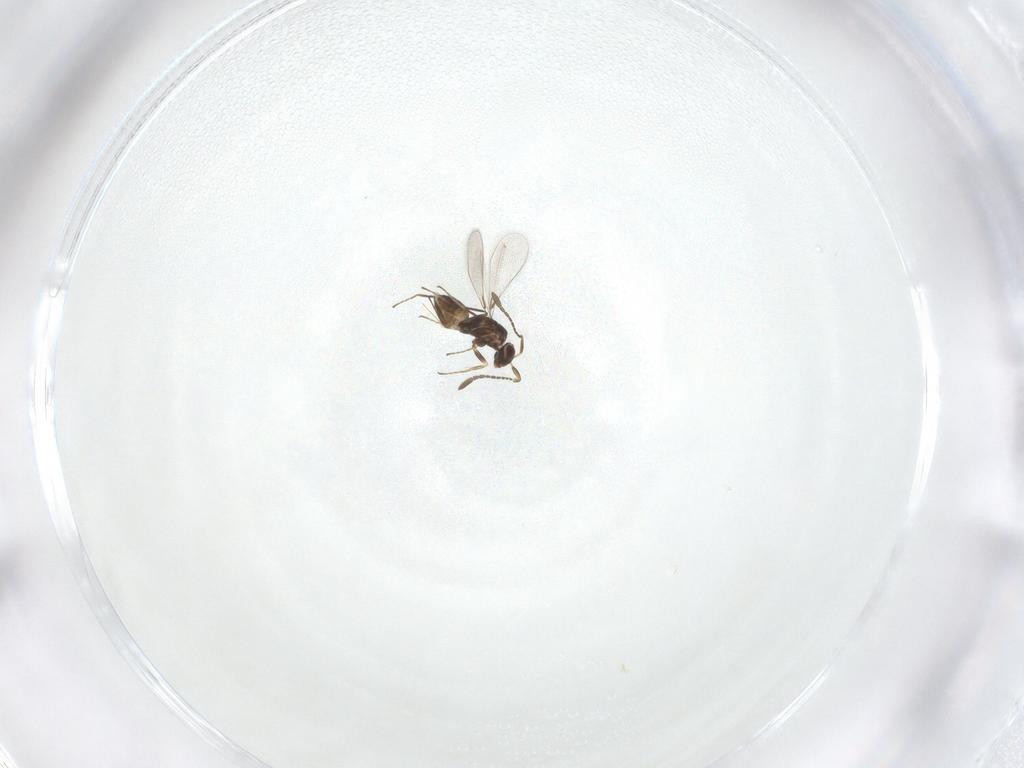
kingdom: Animalia
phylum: Arthropoda
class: Insecta
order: Hymenoptera
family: Mymaridae
